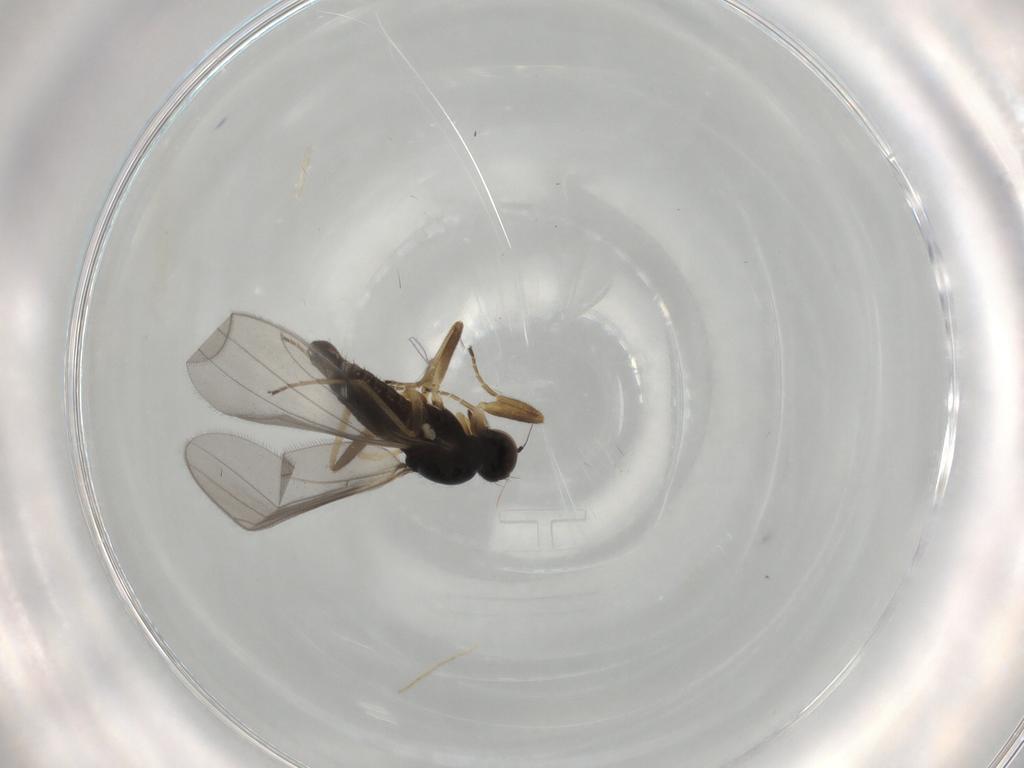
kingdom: Animalia
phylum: Arthropoda
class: Insecta
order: Diptera
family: Hybotidae
